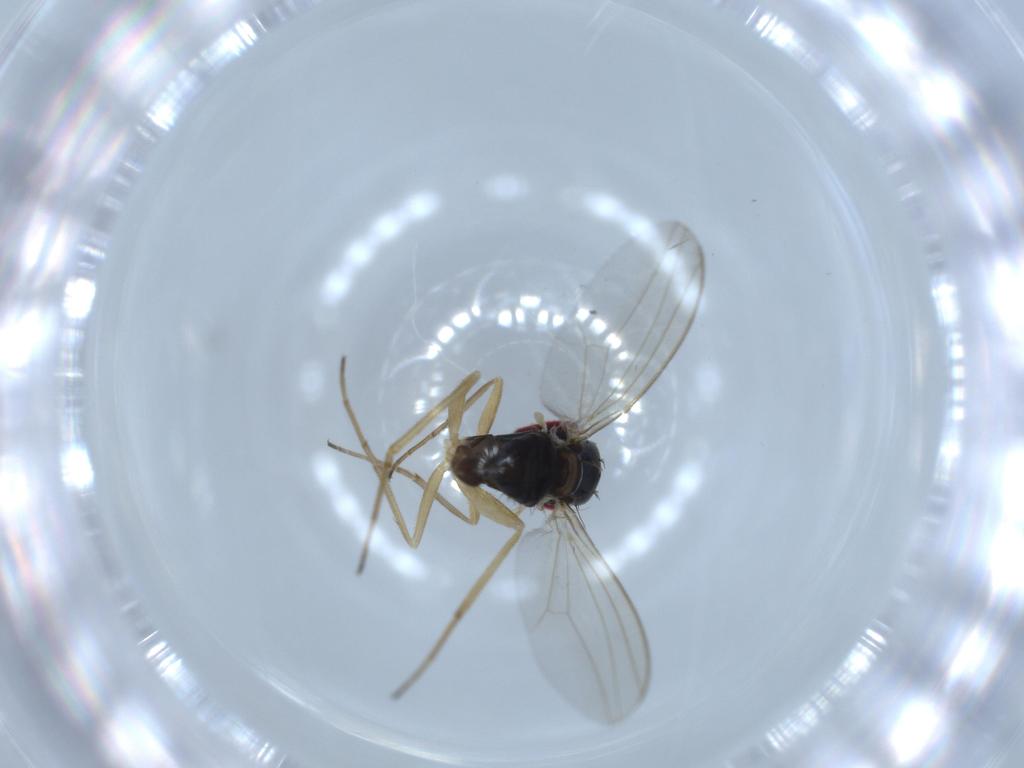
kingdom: Animalia
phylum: Arthropoda
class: Insecta
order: Diptera
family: Dolichopodidae
